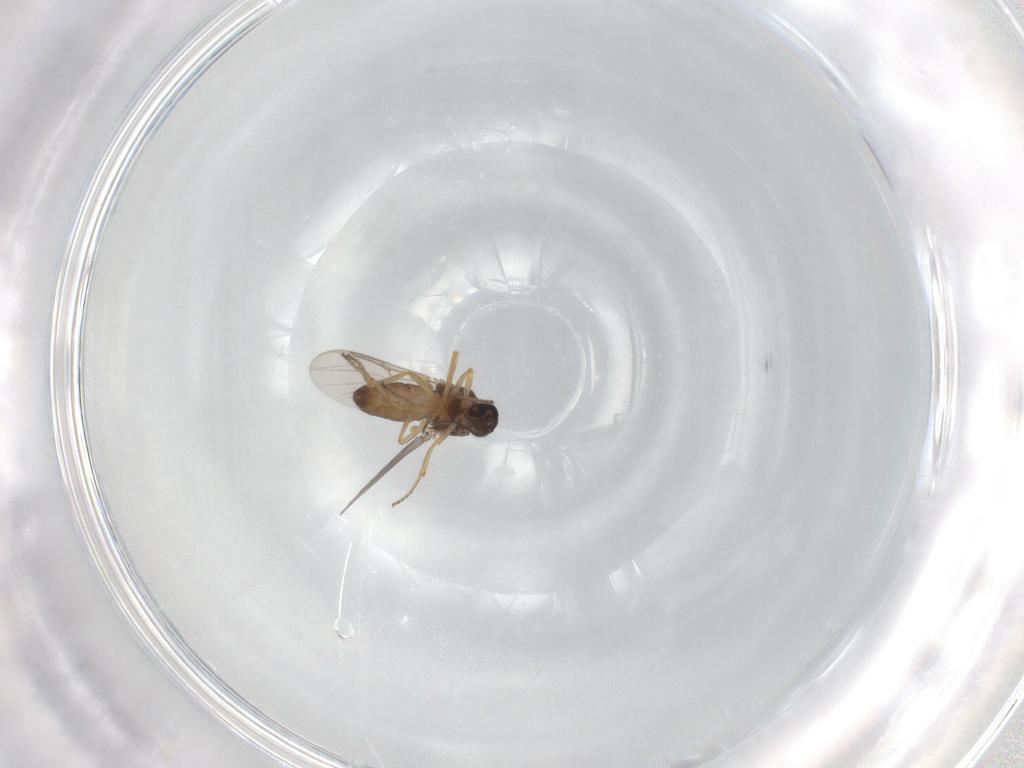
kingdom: Animalia
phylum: Arthropoda
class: Insecta
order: Diptera
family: Ceratopogonidae
